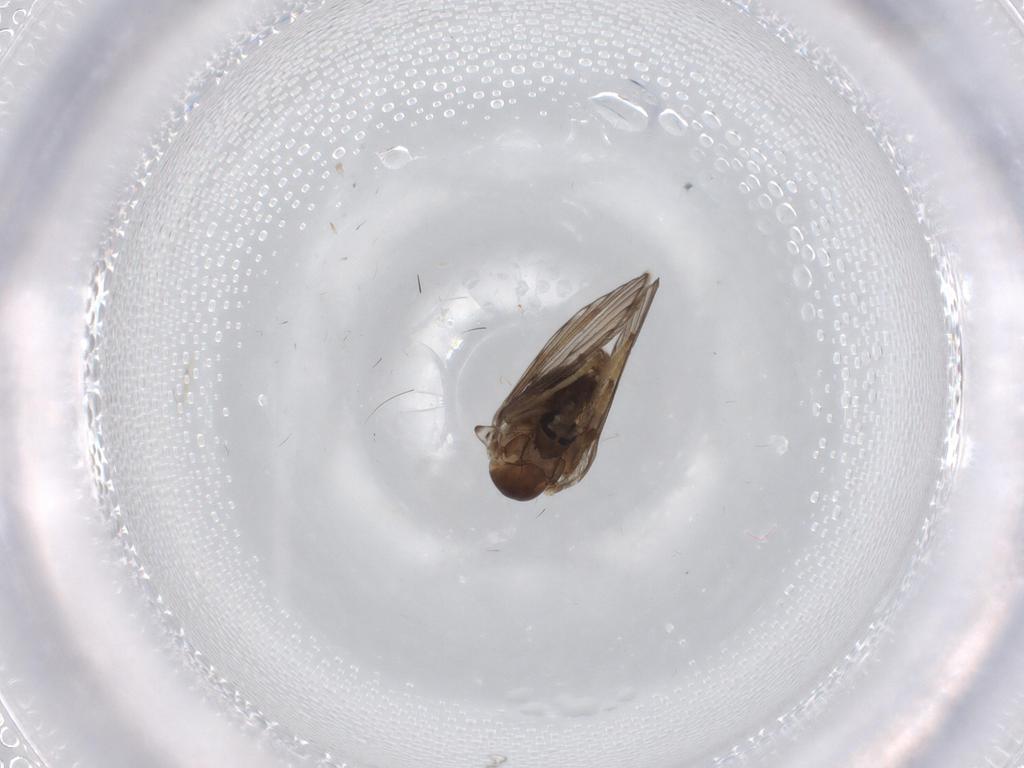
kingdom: Animalia
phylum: Arthropoda
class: Insecta
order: Diptera
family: Psychodidae
